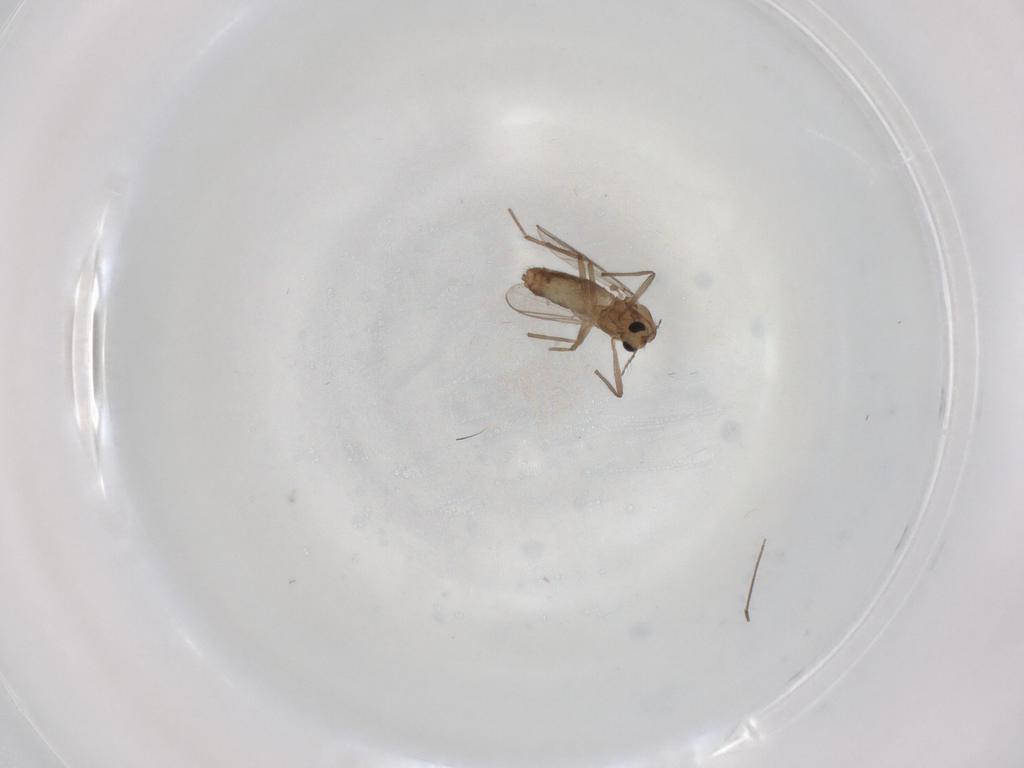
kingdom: Animalia
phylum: Arthropoda
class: Insecta
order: Diptera
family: Chironomidae
